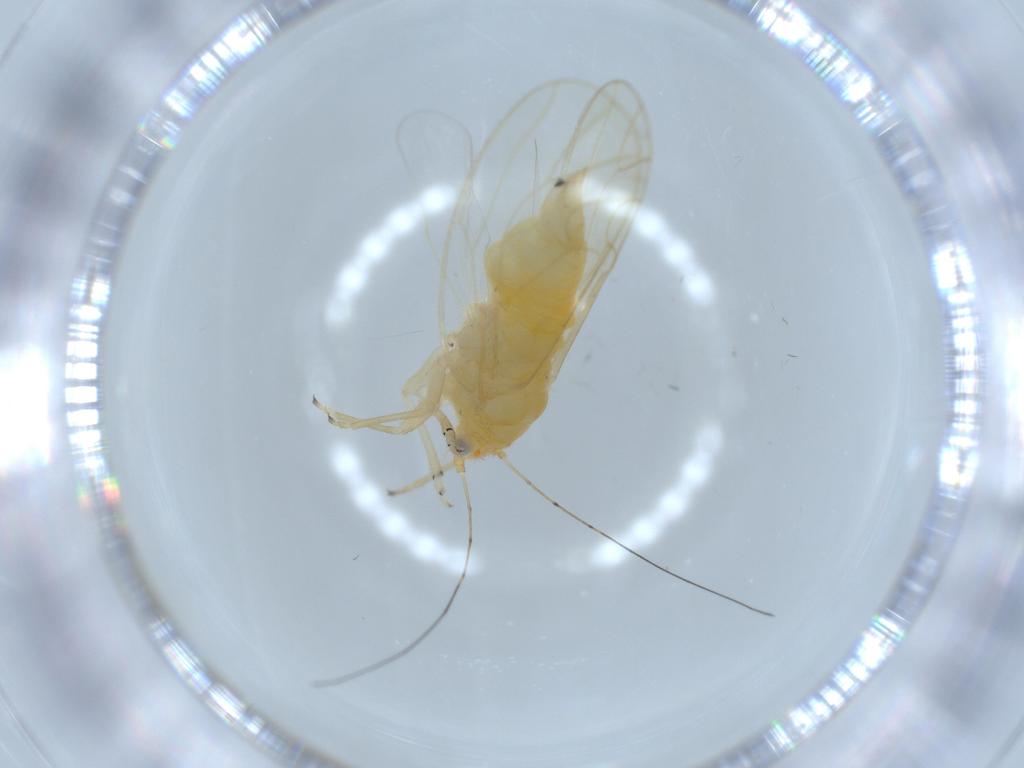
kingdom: Animalia
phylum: Arthropoda
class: Insecta
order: Hemiptera
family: Psyllidae
